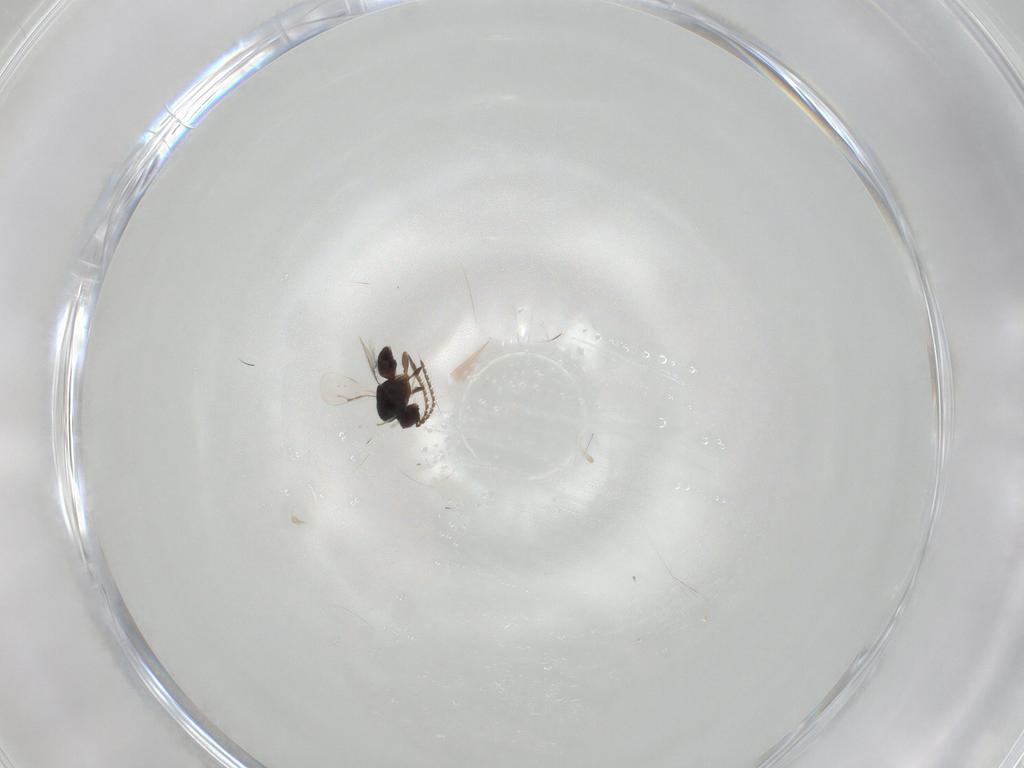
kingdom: Animalia
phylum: Arthropoda
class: Insecta
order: Hymenoptera
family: Ceraphronidae
